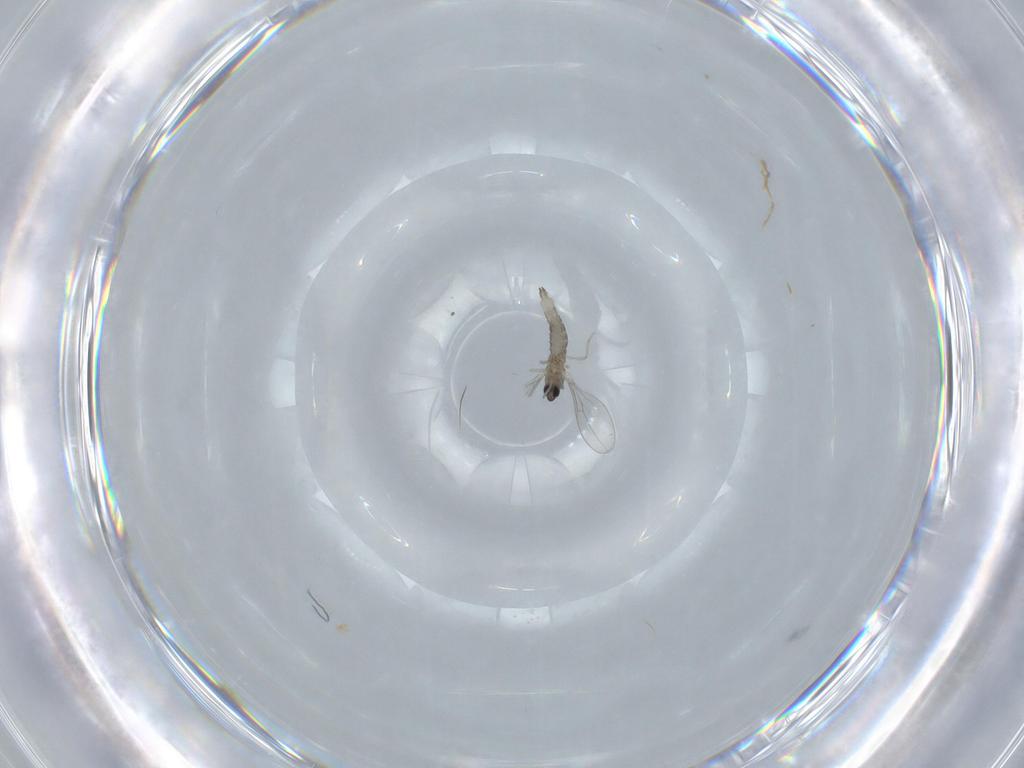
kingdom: Animalia
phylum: Arthropoda
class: Insecta
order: Diptera
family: Cecidomyiidae
